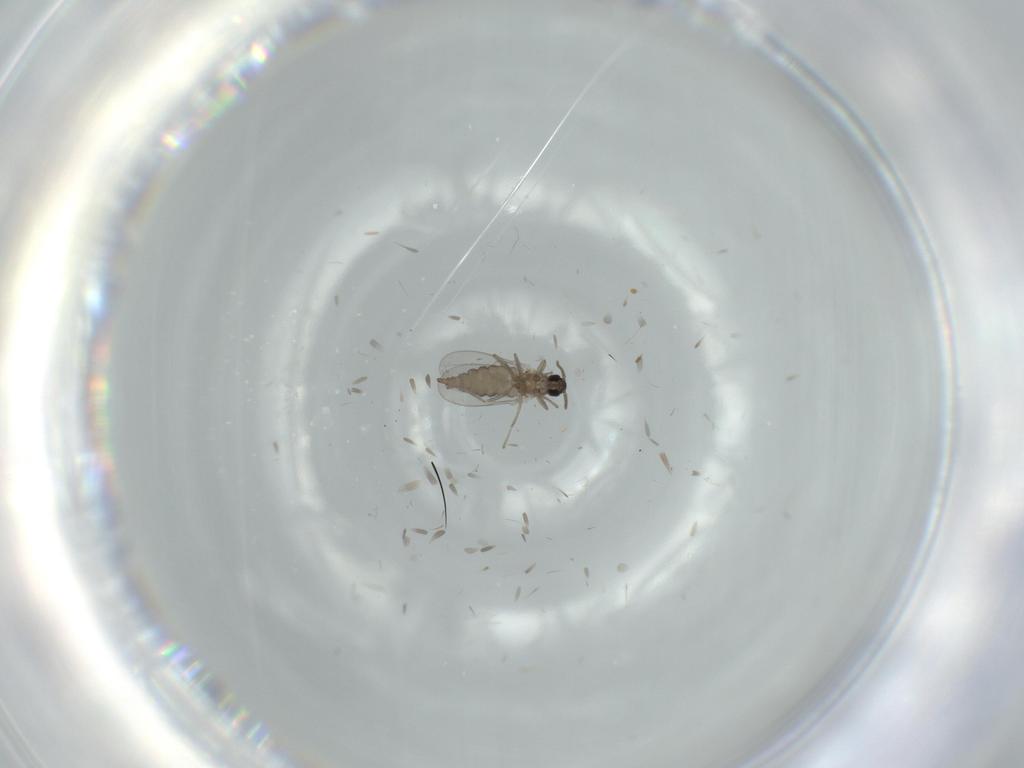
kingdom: Animalia
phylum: Arthropoda
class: Insecta
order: Diptera
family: Cecidomyiidae
